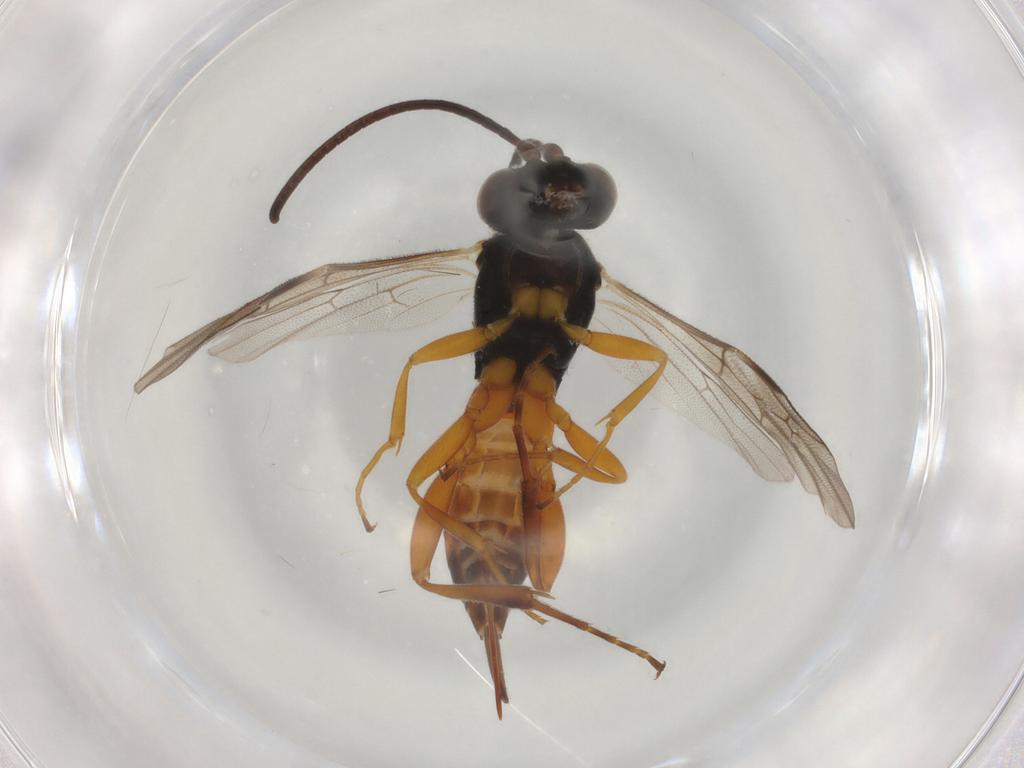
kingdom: Animalia
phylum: Arthropoda
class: Insecta
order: Hymenoptera
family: Ichneumonidae
